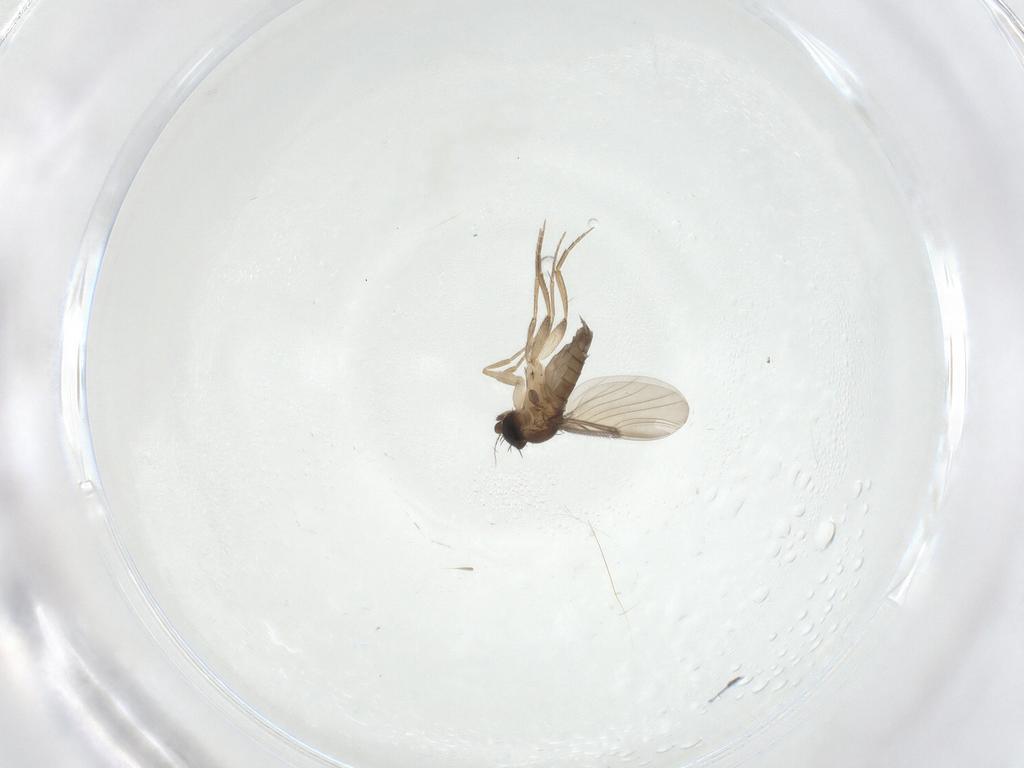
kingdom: Animalia
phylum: Arthropoda
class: Insecta
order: Diptera
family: Phoridae
